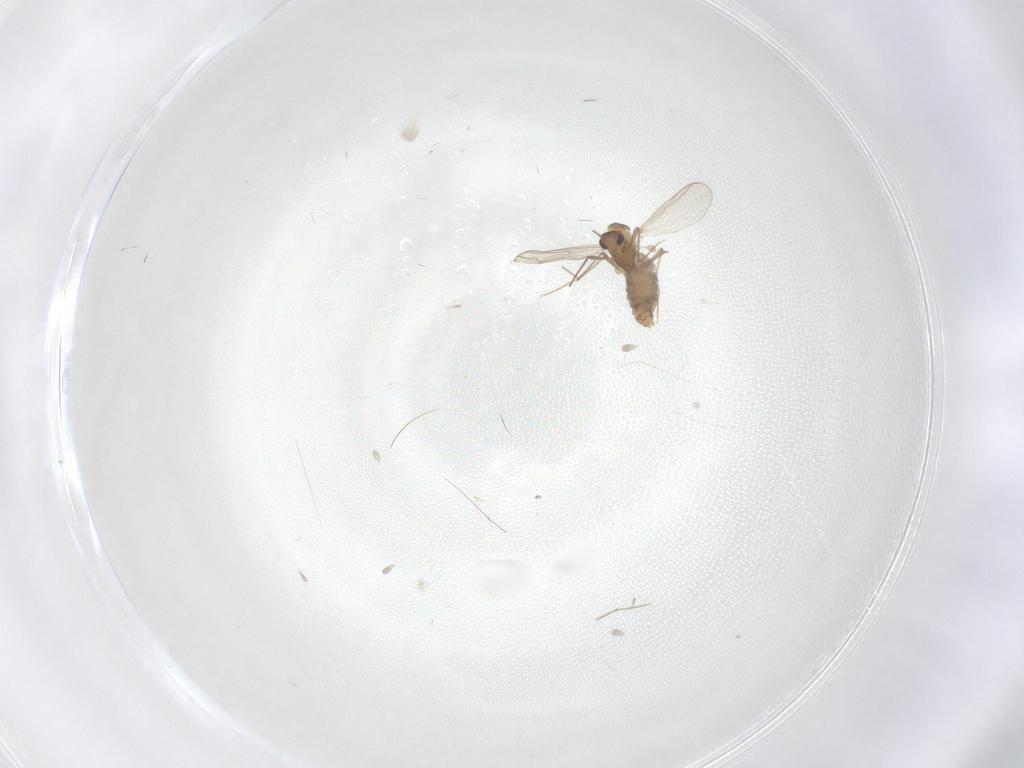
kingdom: Animalia
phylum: Arthropoda
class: Insecta
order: Diptera
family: Chironomidae
